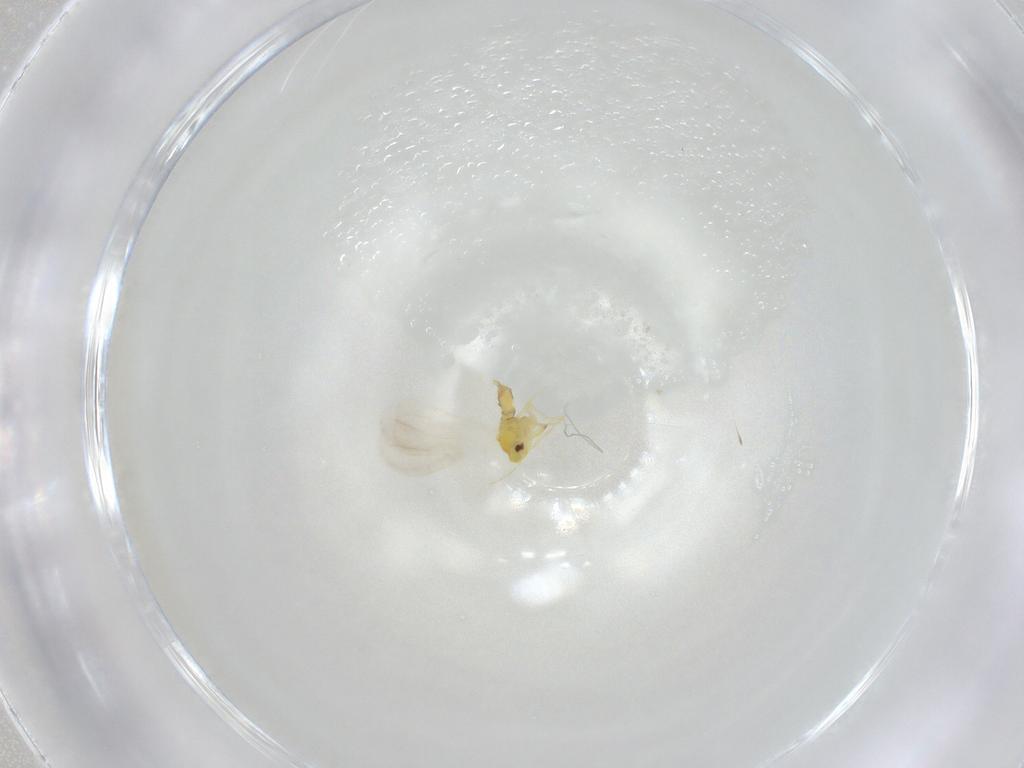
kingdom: Animalia
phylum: Arthropoda
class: Insecta
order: Hemiptera
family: Aleyrodidae
